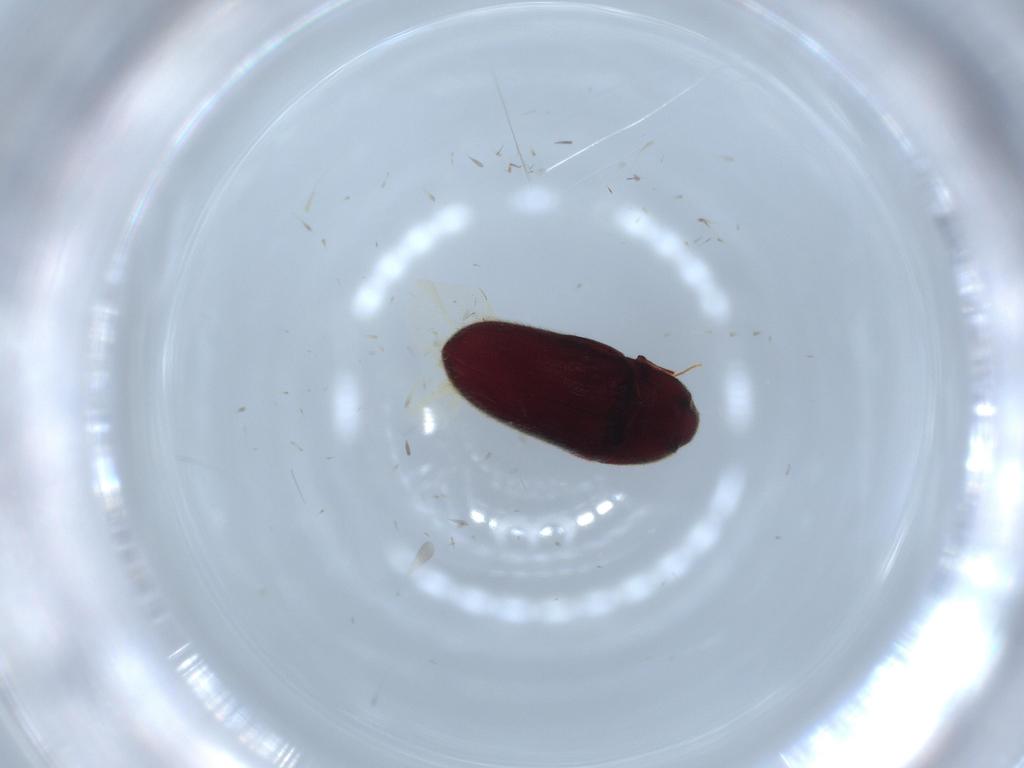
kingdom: Animalia
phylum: Arthropoda
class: Insecta
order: Coleoptera
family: Throscidae
